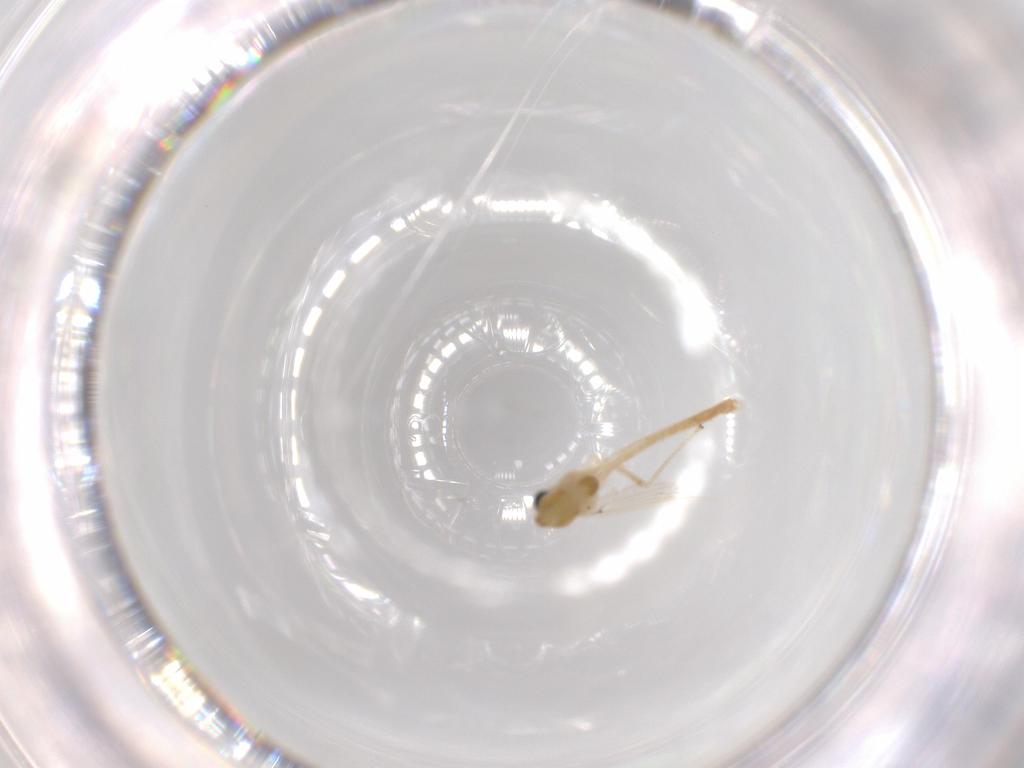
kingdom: Animalia
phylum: Arthropoda
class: Insecta
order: Diptera
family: Chironomidae
